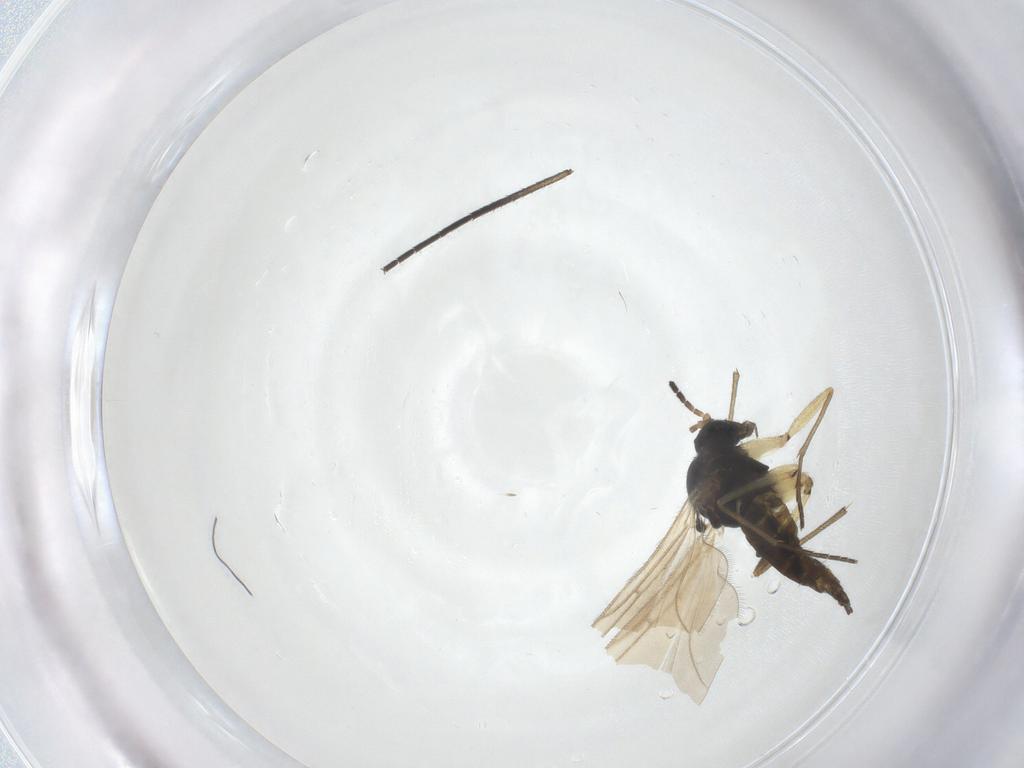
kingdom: Animalia
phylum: Arthropoda
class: Insecta
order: Diptera
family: Sciaridae
